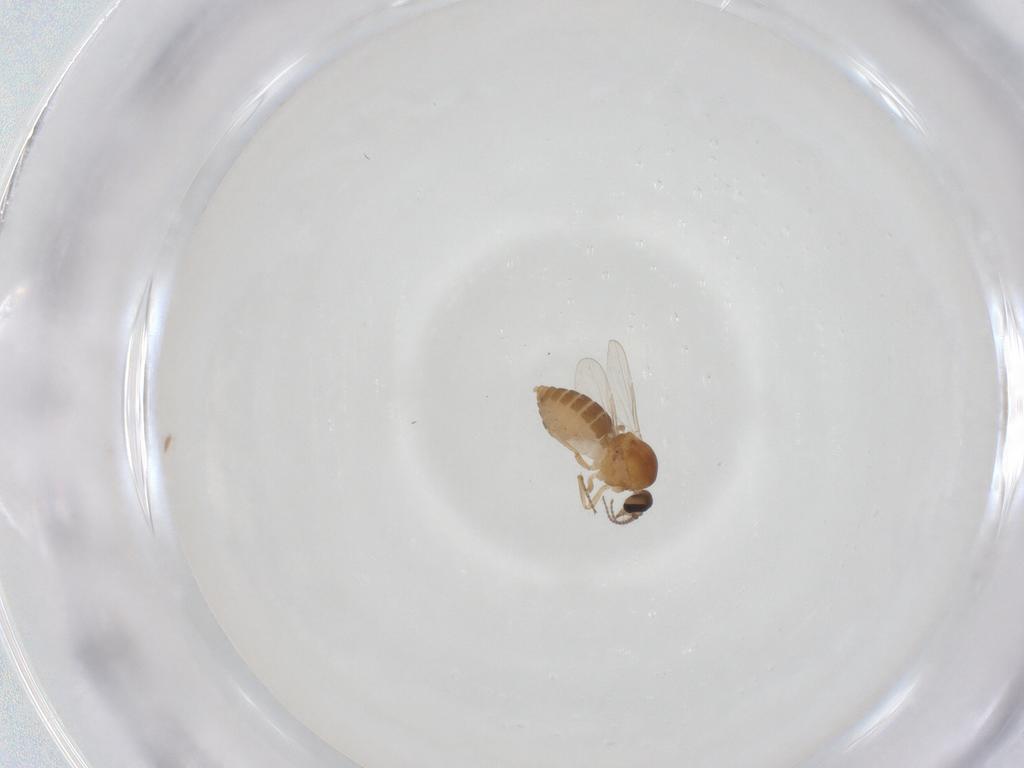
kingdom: Animalia
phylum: Arthropoda
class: Insecta
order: Diptera
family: Ceratopogonidae
